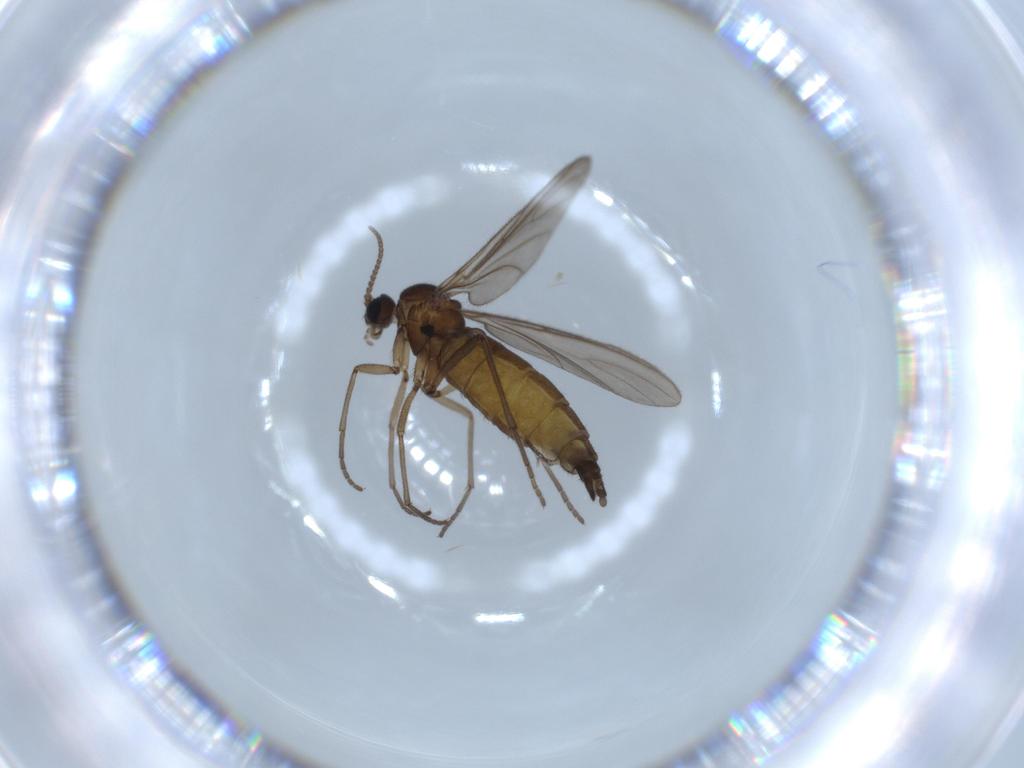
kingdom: Animalia
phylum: Arthropoda
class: Insecta
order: Diptera
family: Sciaridae
